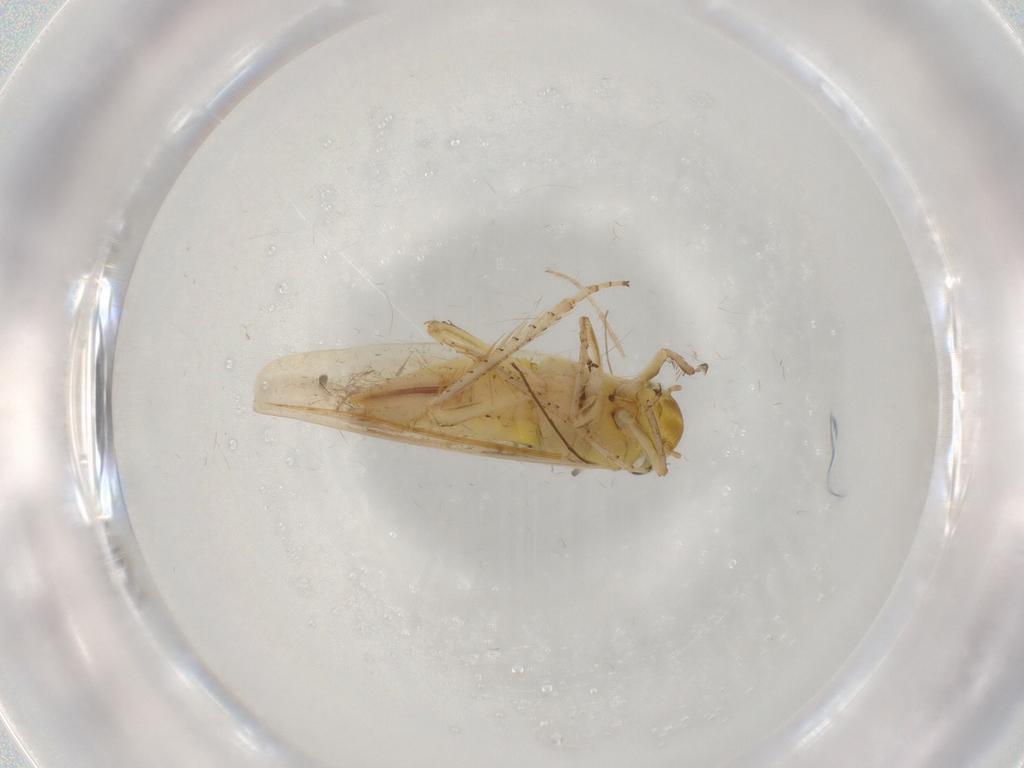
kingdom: Animalia
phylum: Arthropoda
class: Insecta
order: Hemiptera
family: Cicadellidae
